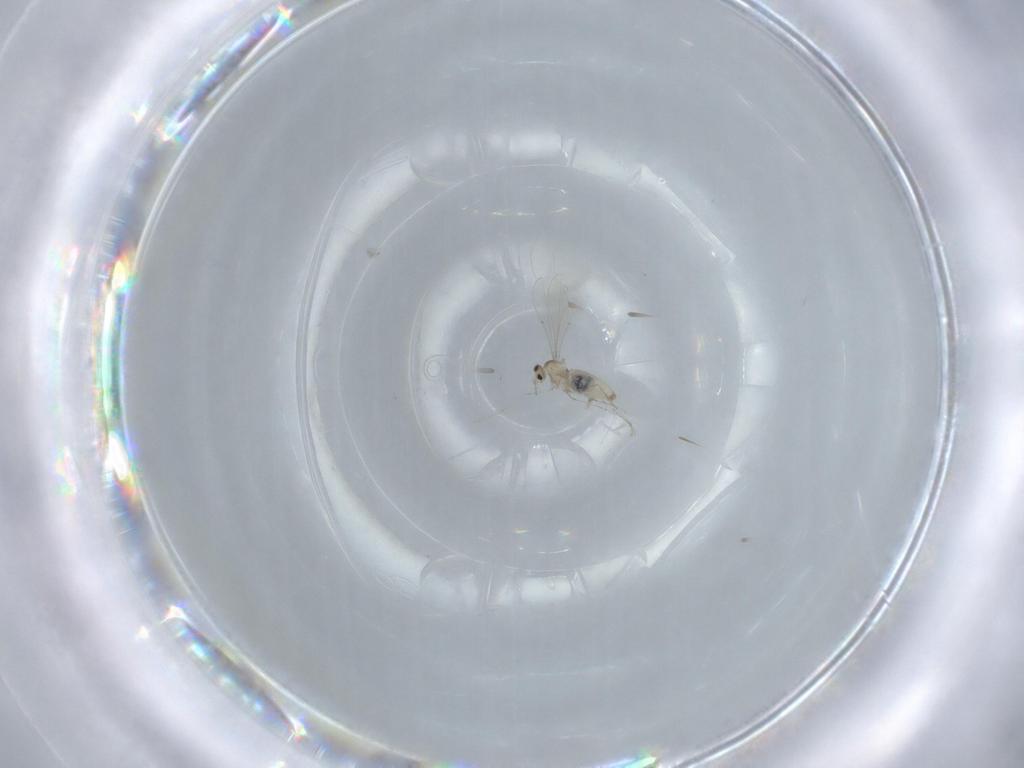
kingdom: Animalia
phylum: Arthropoda
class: Insecta
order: Diptera
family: Cecidomyiidae
